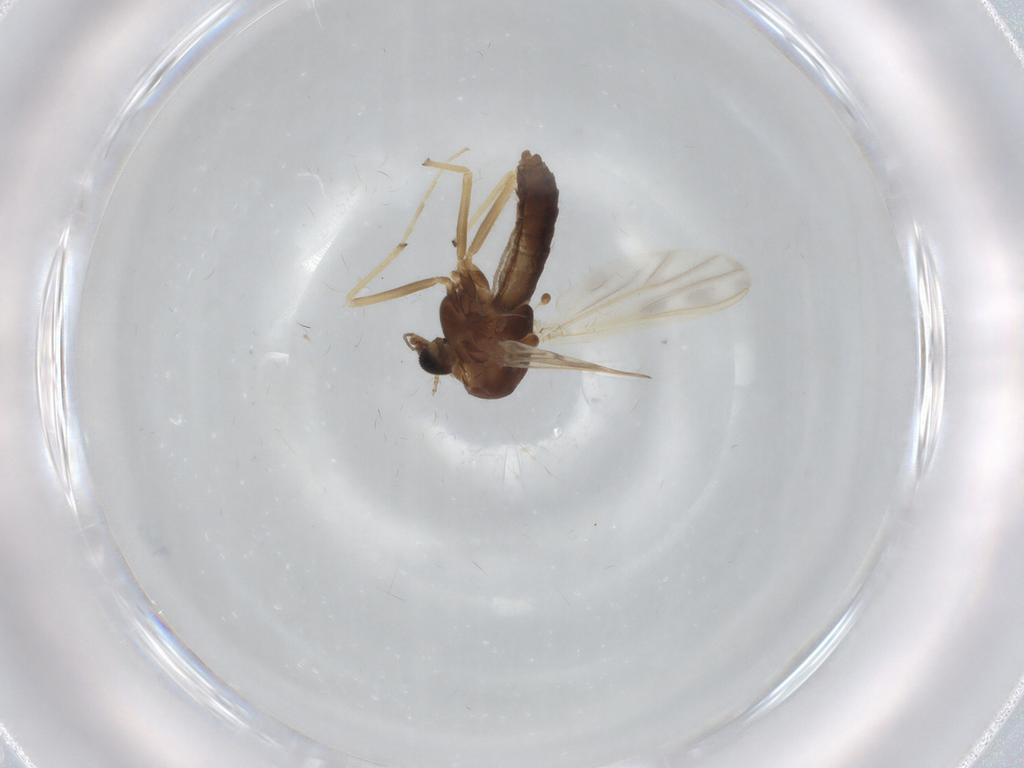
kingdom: Animalia
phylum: Arthropoda
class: Insecta
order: Diptera
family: Chironomidae
